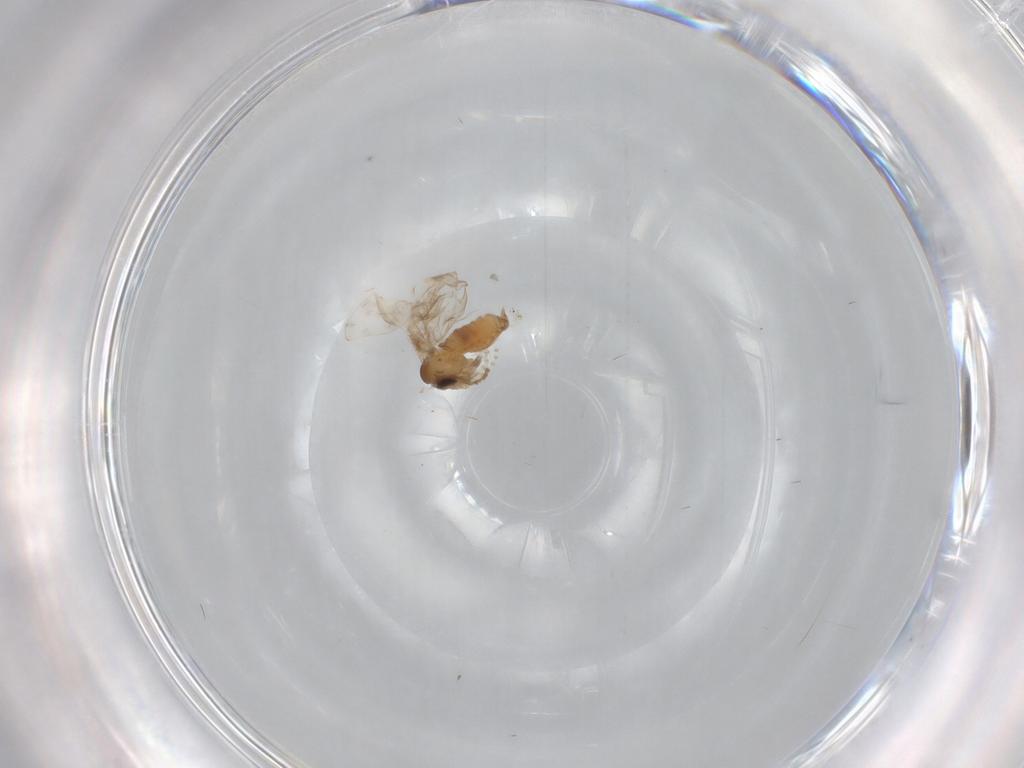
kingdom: Animalia
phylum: Arthropoda
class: Insecta
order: Diptera
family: Psychodidae
